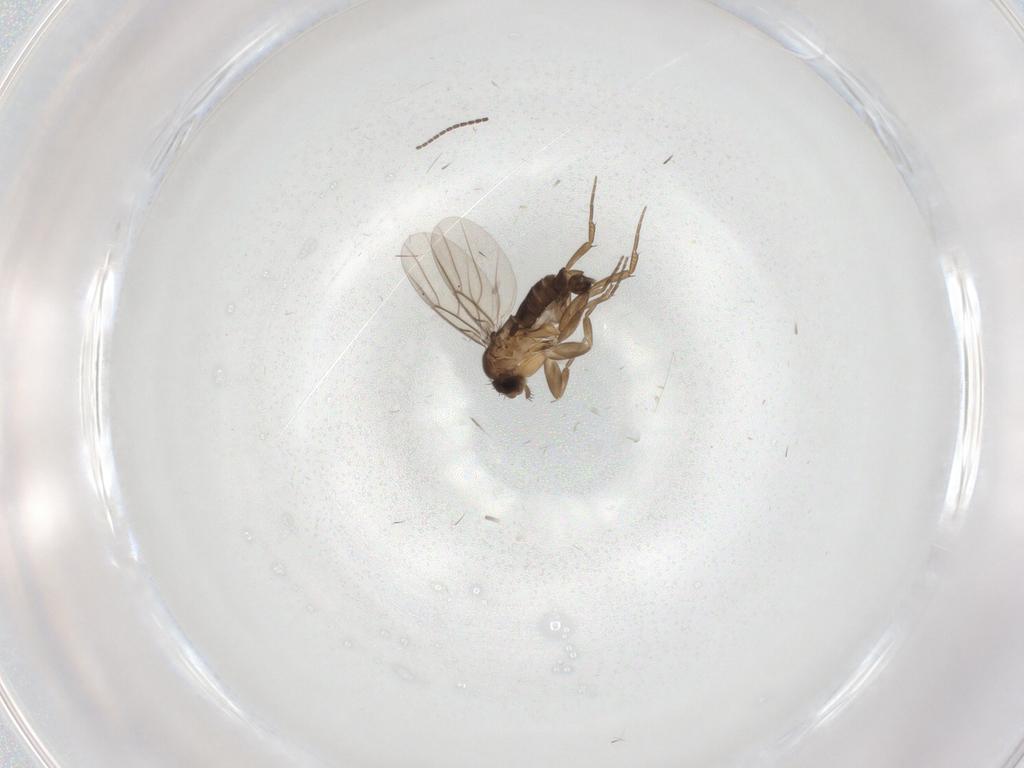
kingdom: Animalia
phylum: Arthropoda
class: Insecta
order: Diptera
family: Sciaridae
